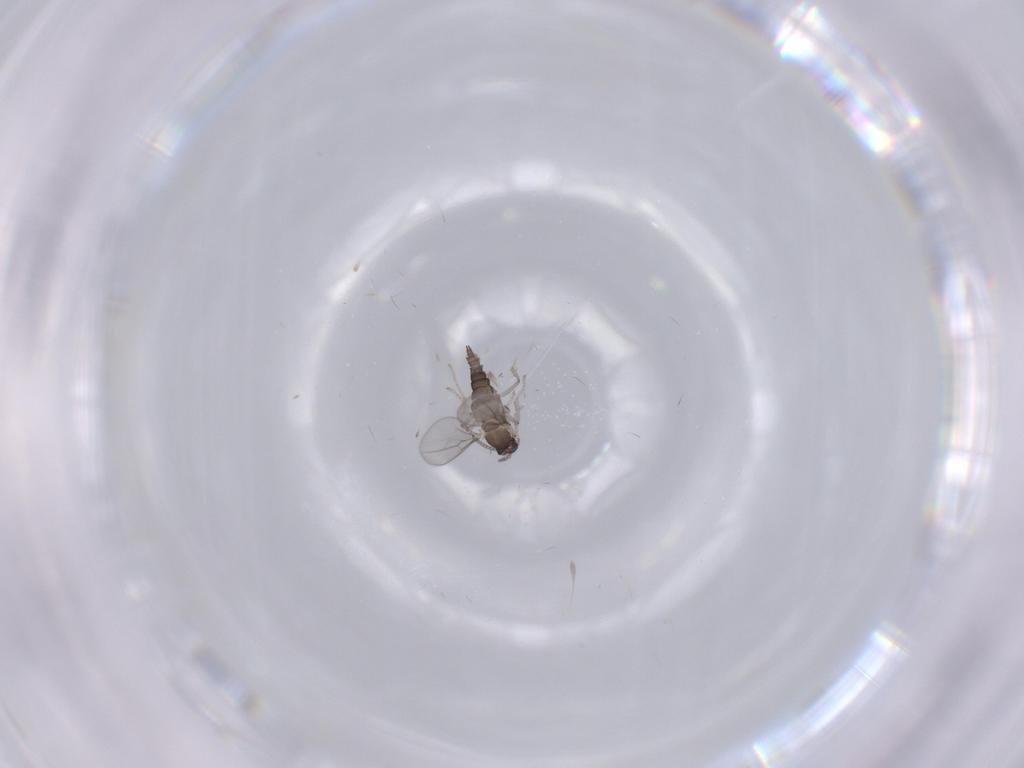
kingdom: Animalia
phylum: Arthropoda
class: Insecta
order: Diptera
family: Cecidomyiidae
